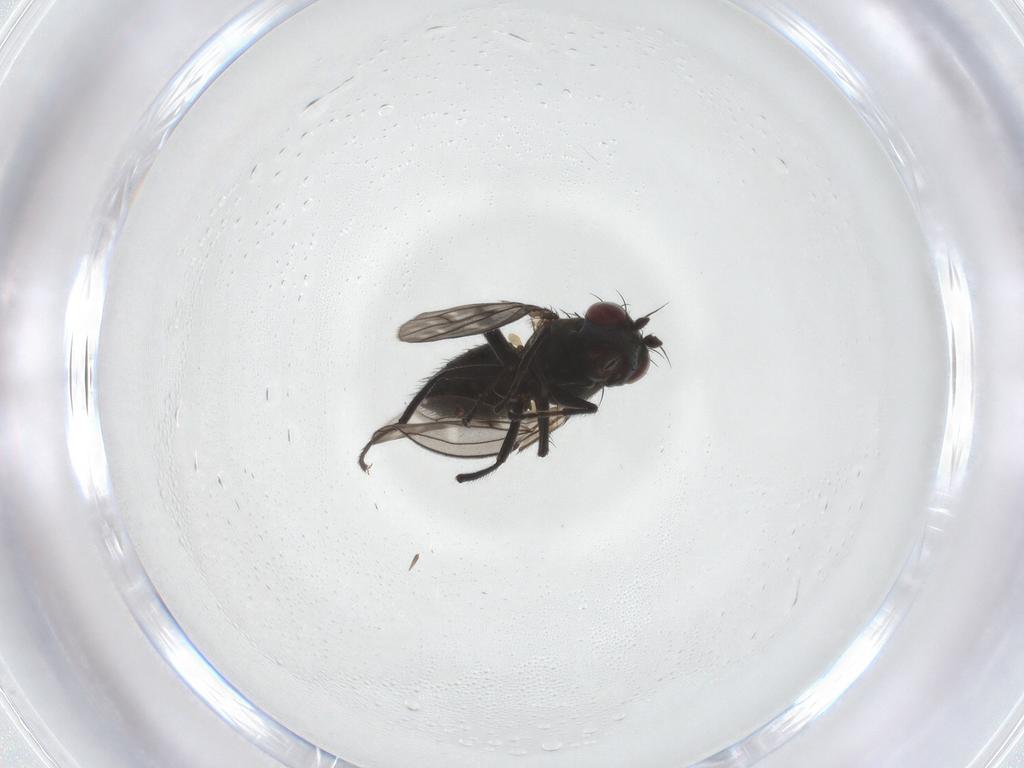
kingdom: Animalia
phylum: Arthropoda
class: Insecta
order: Diptera
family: Ephydridae
